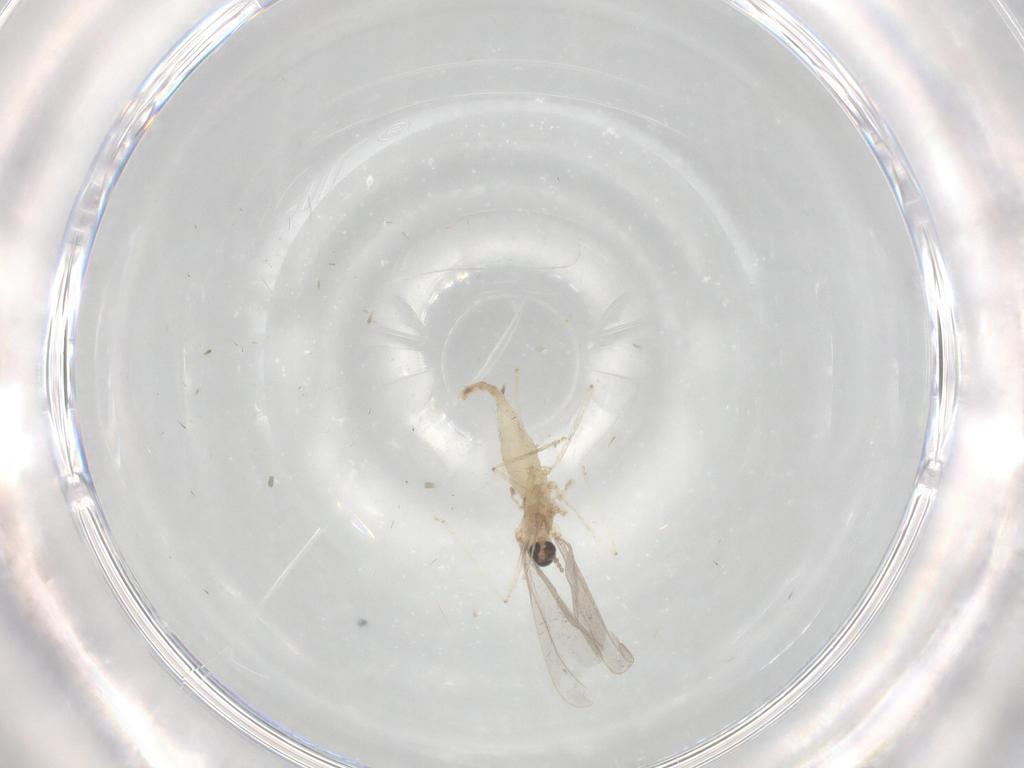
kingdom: Animalia
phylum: Arthropoda
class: Insecta
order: Diptera
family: Cecidomyiidae
